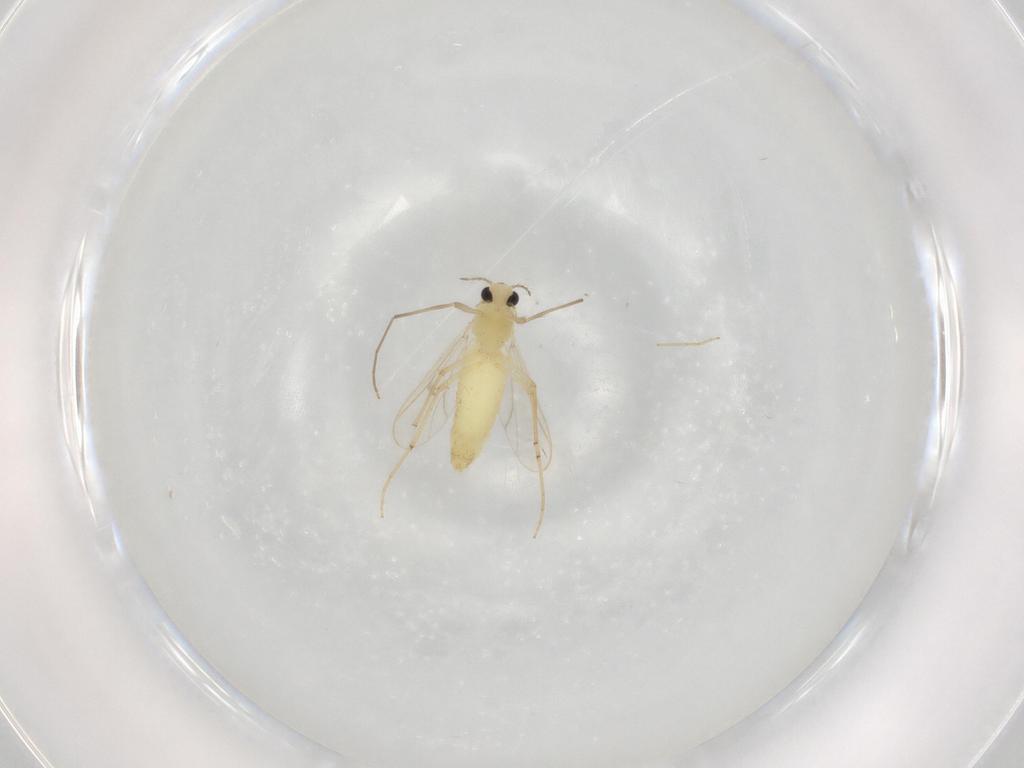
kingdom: Animalia
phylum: Arthropoda
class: Insecta
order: Diptera
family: Chironomidae
